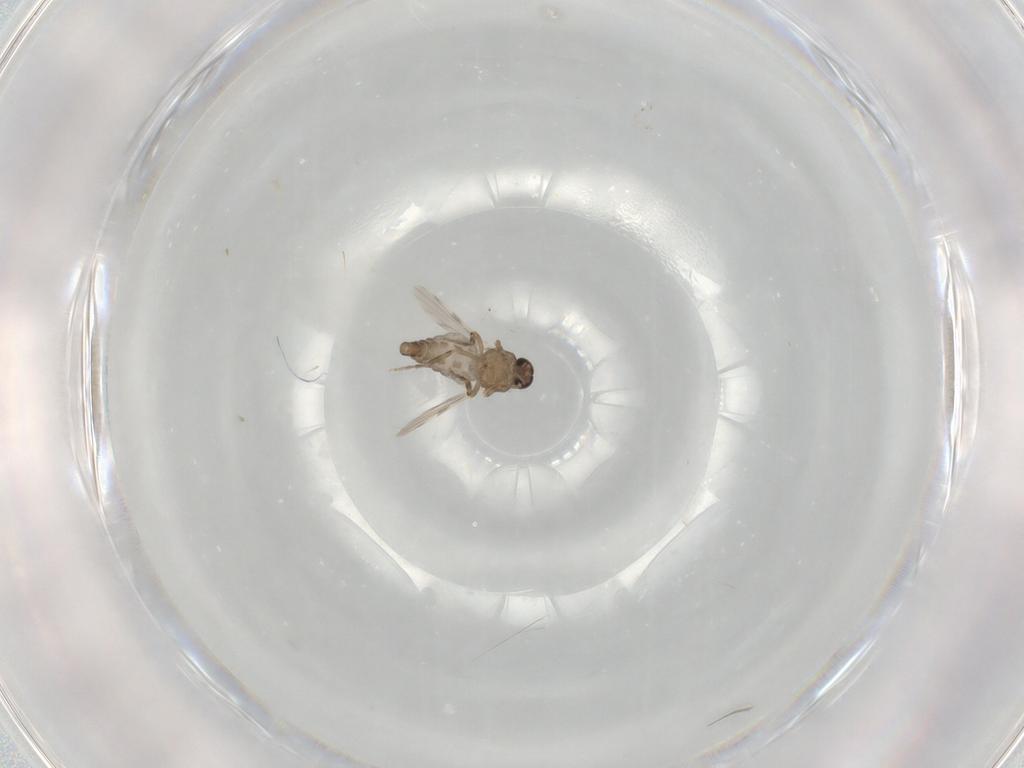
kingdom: Animalia
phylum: Arthropoda
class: Insecta
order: Diptera
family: Ceratopogonidae
